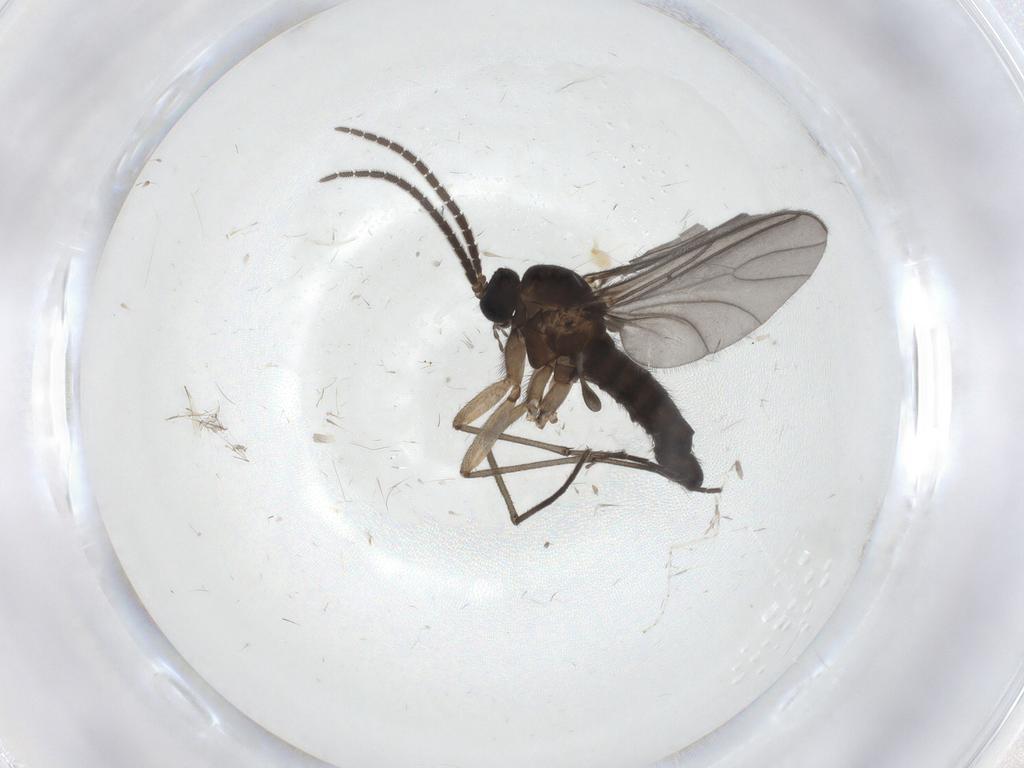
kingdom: Animalia
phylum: Arthropoda
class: Insecta
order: Diptera
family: Sciaridae
